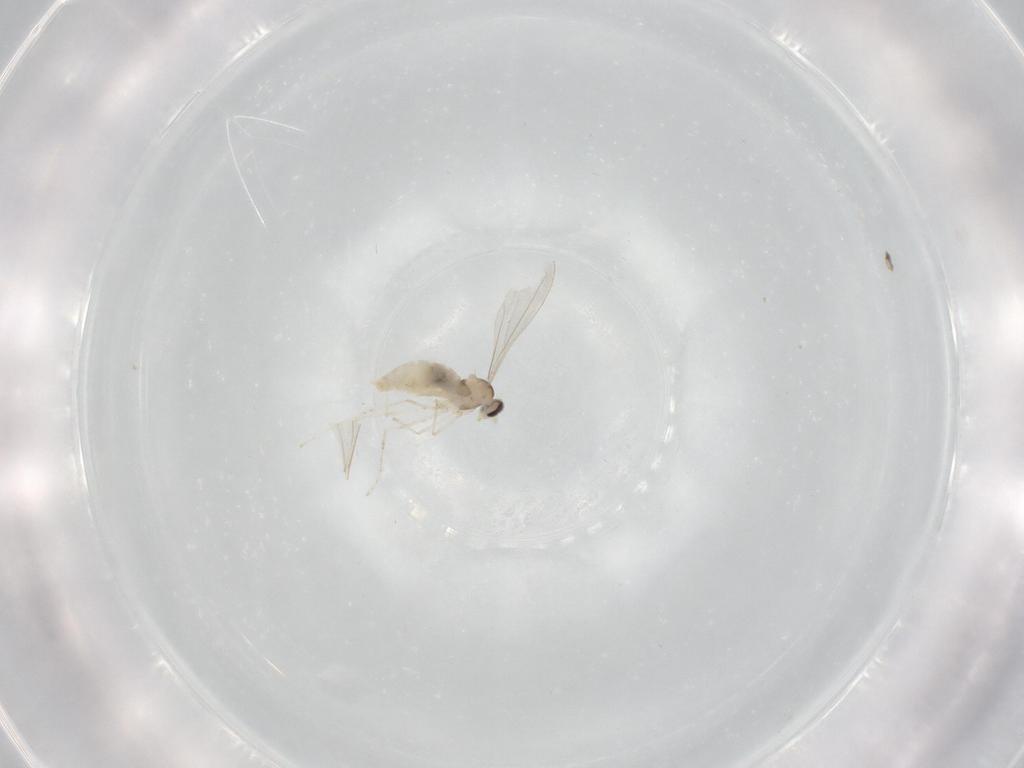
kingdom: Animalia
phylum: Arthropoda
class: Insecta
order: Diptera
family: Cecidomyiidae
